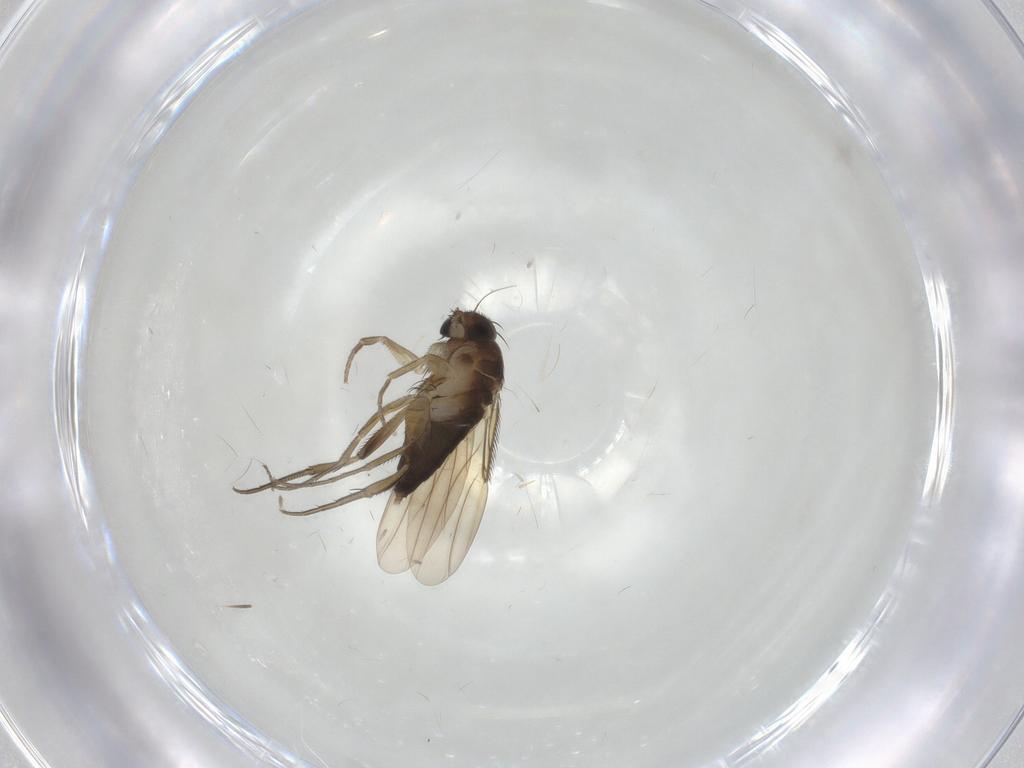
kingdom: Animalia
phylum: Arthropoda
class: Insecta
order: Diptera
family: Phoridae
